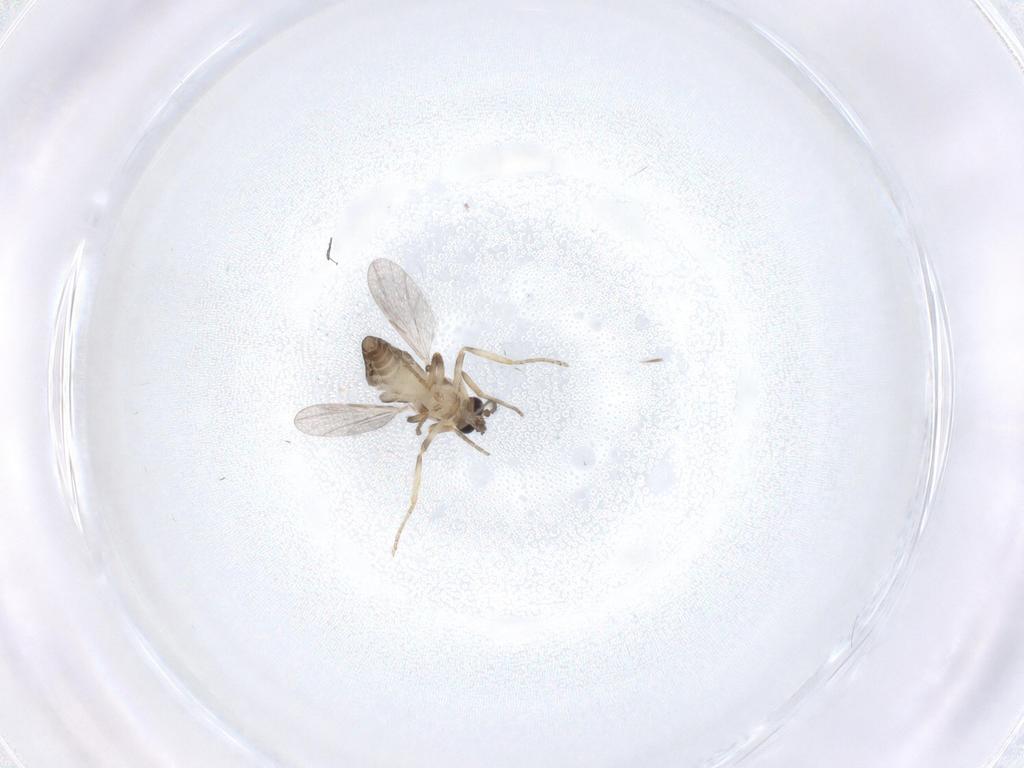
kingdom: Animalia
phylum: Arthropoda
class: Insecta
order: Diptera
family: Ceratopogonidae
